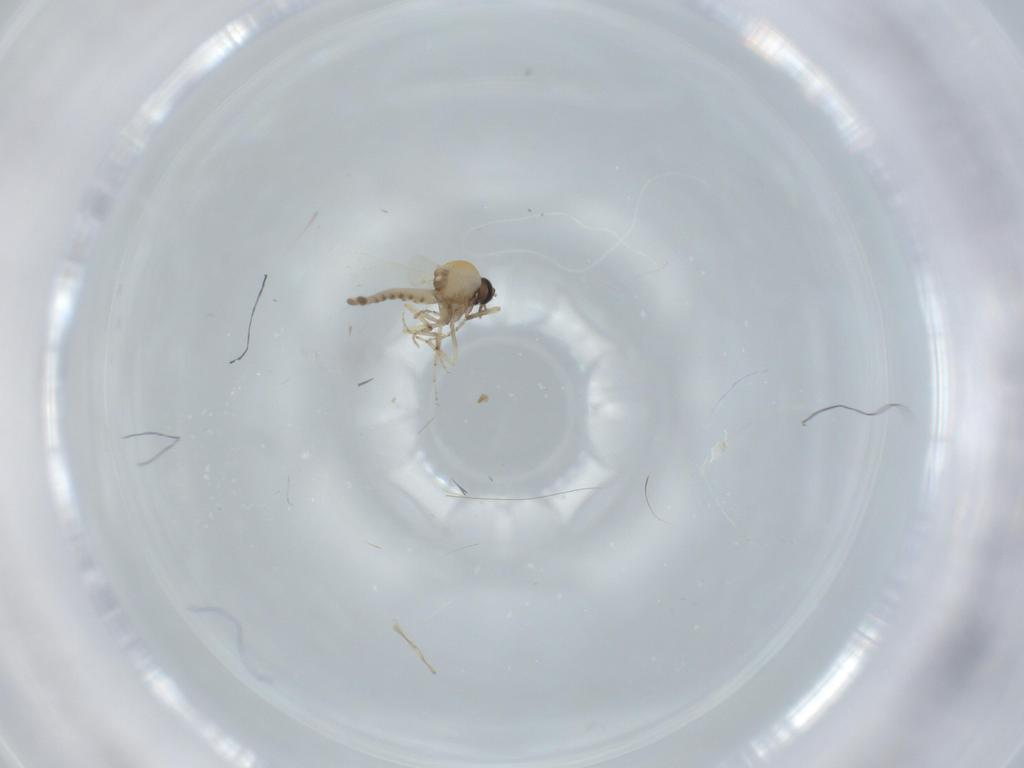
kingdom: Animalia
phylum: Arthropoda
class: Insecta
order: Diptera
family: Ceratopogonidae
